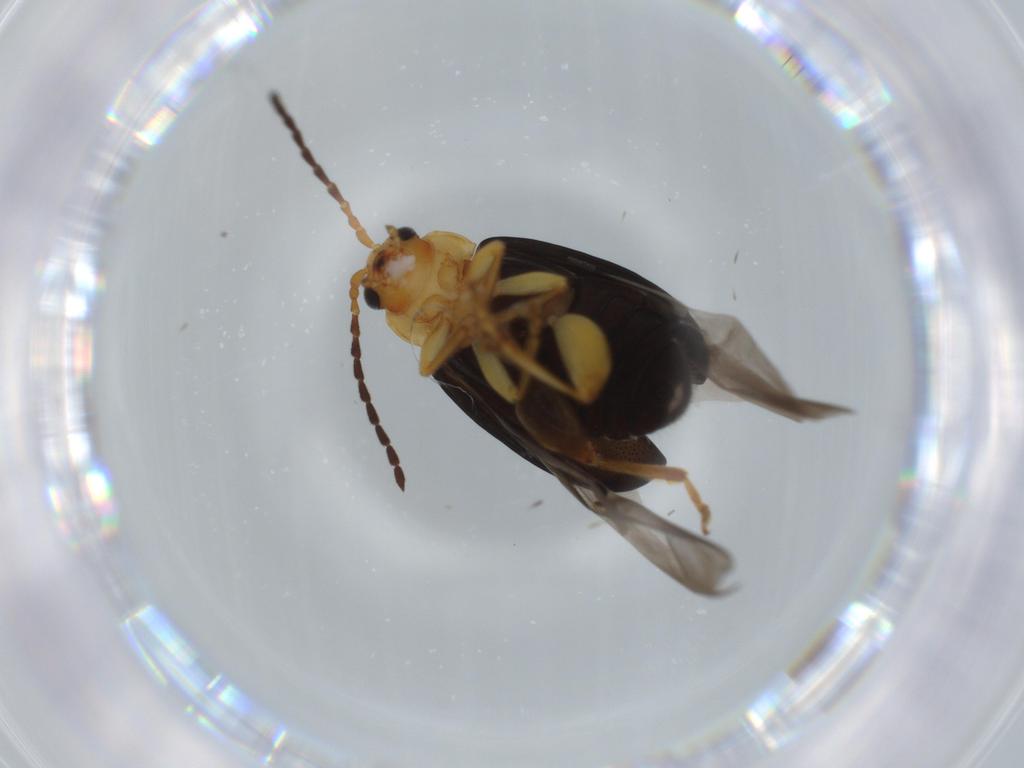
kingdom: Animalia
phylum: Arthropoda
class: Insecta
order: Coleoptera
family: Chrysomelidae
